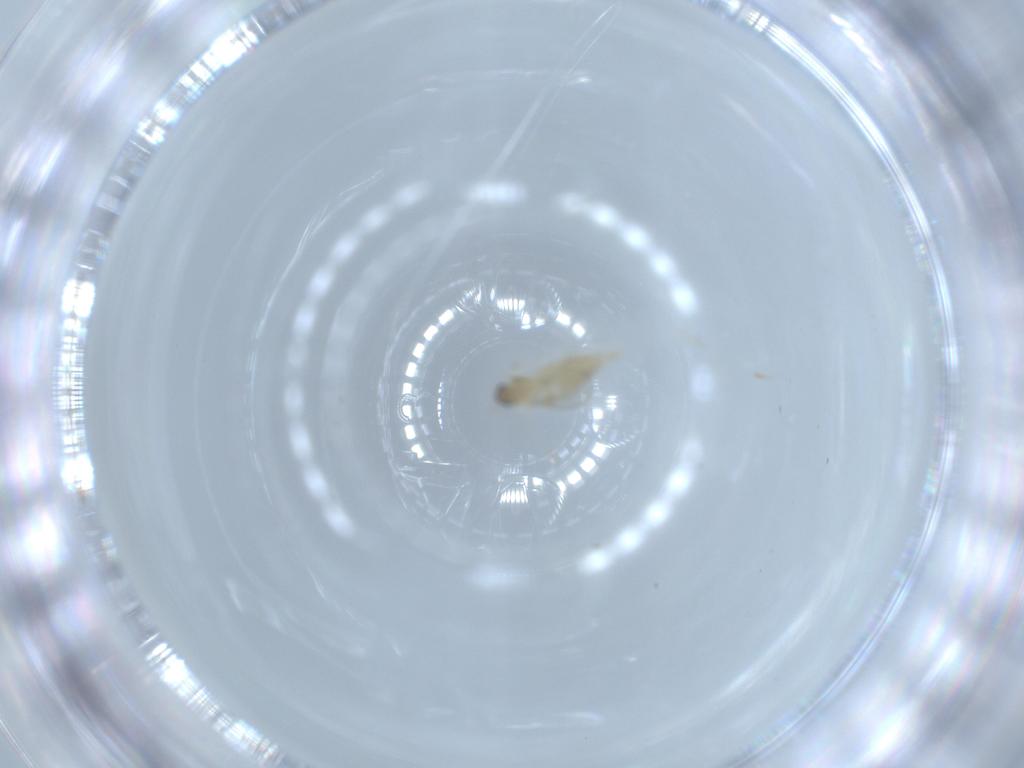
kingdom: Animalia
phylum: Arthropoda
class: Insecta
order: Diptera
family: Cecidomyiidae
